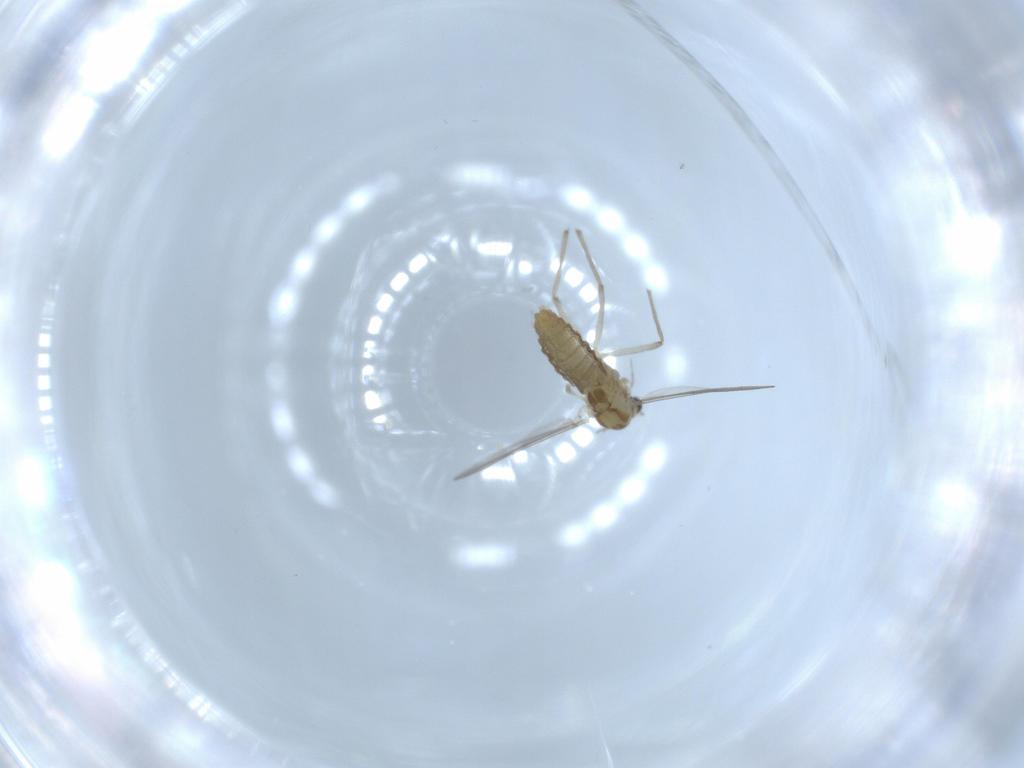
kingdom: Animalia
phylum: Arthropoda
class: Insecta
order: Diptera
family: Chironomidae
